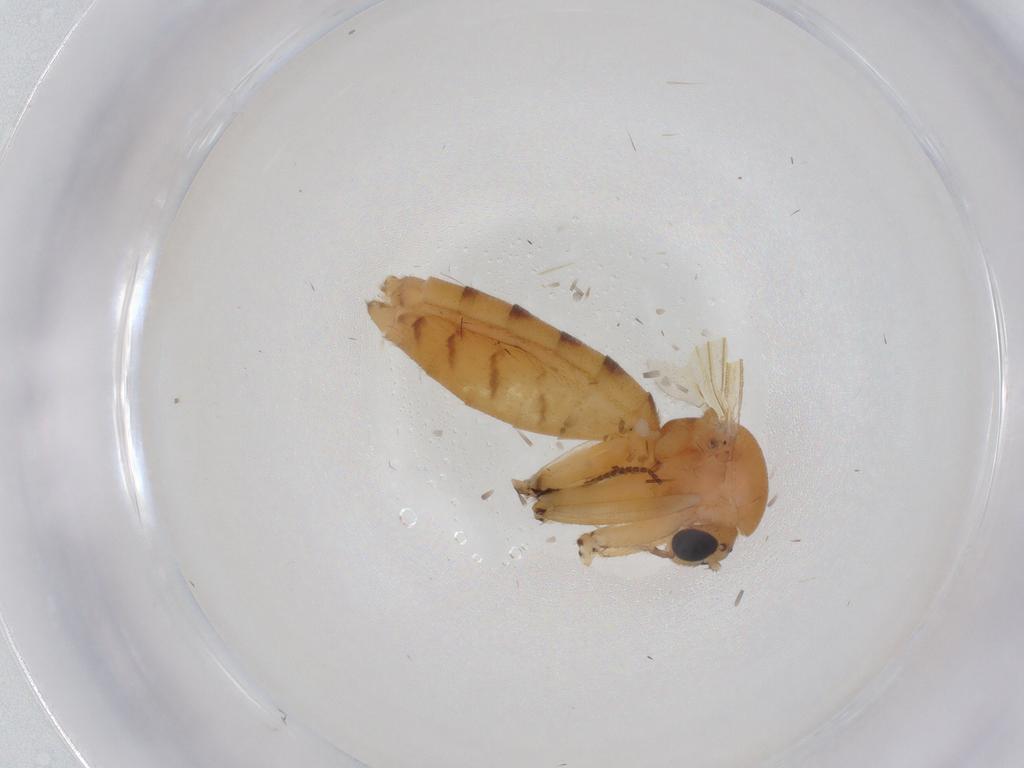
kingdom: Animalia
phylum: Arthropoda
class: Insecta
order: Diptera
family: Mycetophilidae
